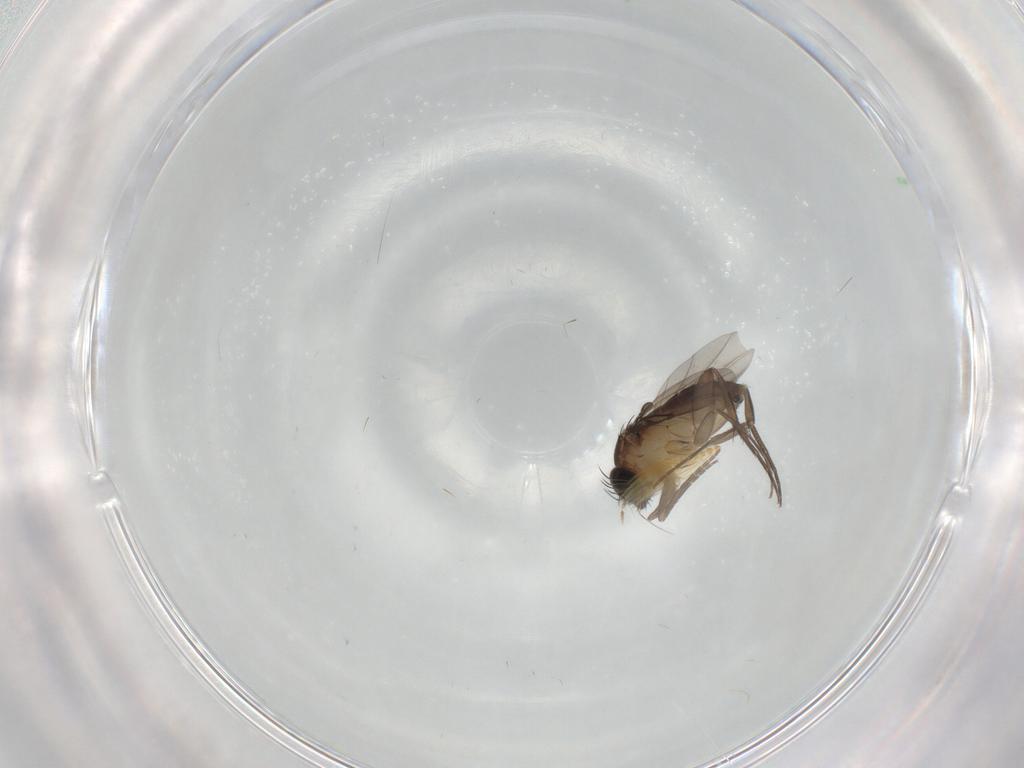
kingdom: Animalia
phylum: Arthropoda
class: Insecta
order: Diptera
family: Phoridae
